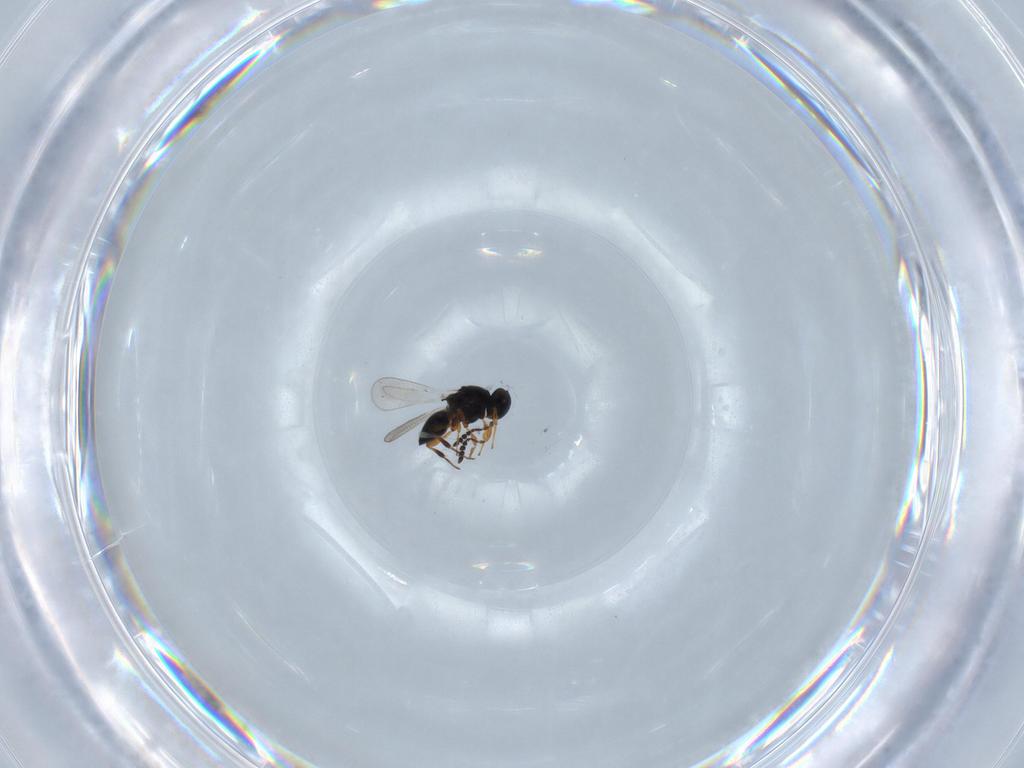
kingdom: Animalia
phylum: Arthropoda
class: Insecta
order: Hymenoptera
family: Platygastridae
